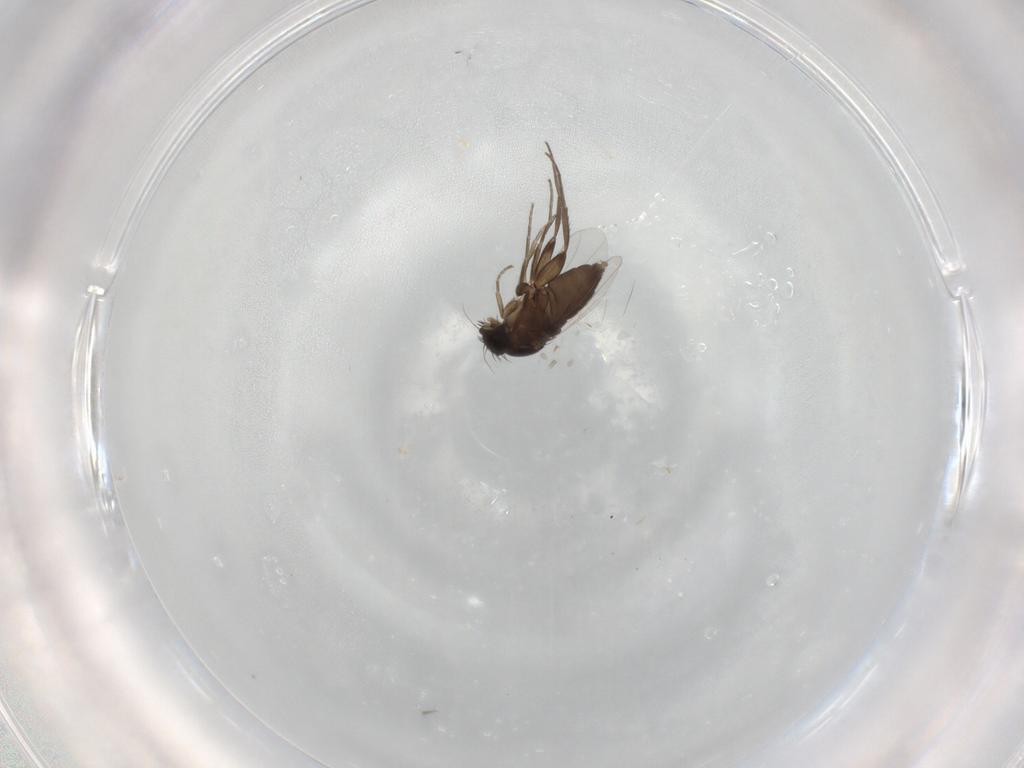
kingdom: Animalia
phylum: Arthropoda
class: Insecta
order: Diptera
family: Phoridae
